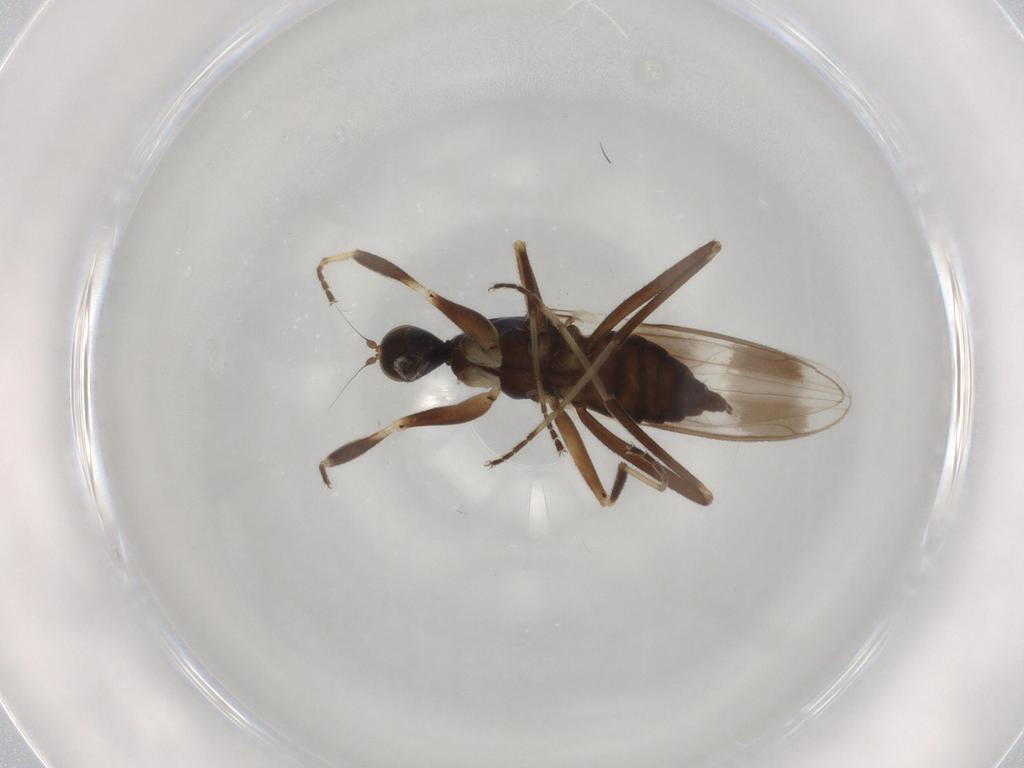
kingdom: Animalia
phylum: Arthropoda
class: Insecta
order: Diptera
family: Hybotidae
